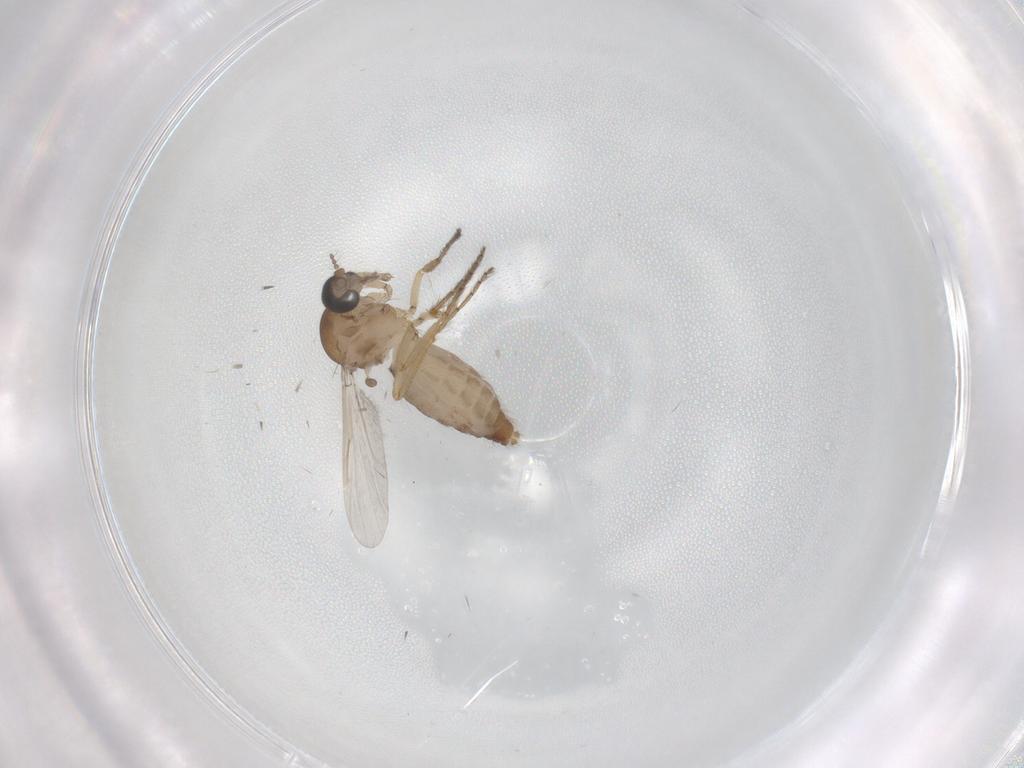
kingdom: Animalia
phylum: Arthropoda
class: Insecta
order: Diptera
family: Ceratopogonidae
